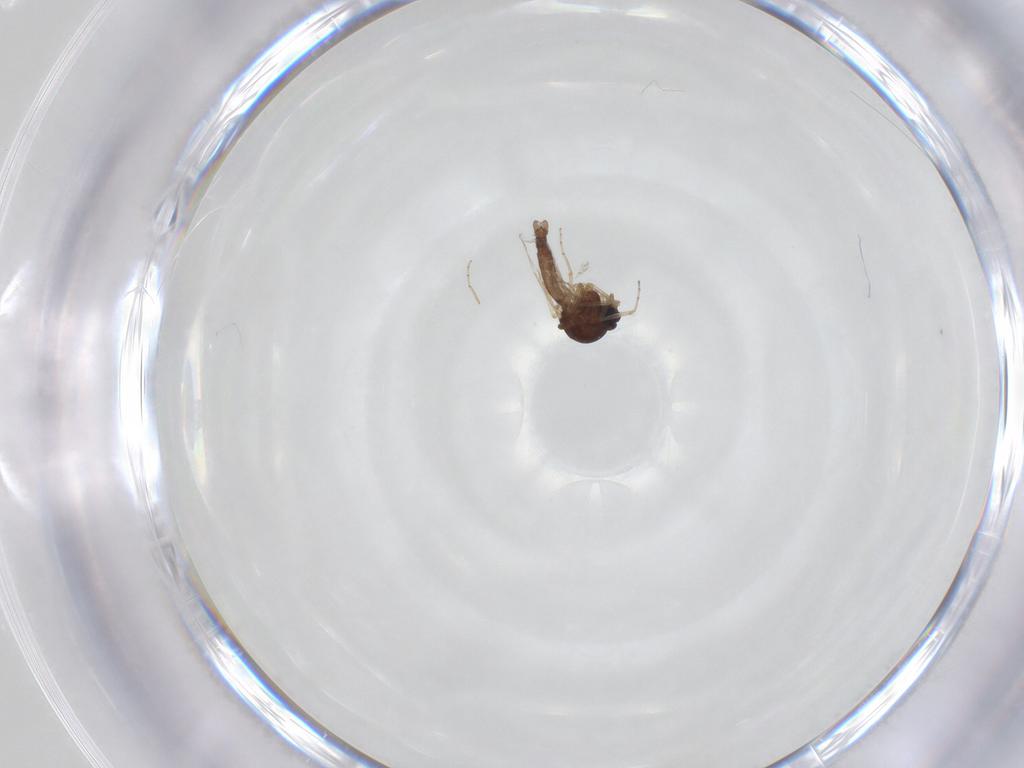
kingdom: Animalia
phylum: Arthropoda
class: Insecta
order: Diptera
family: Ceratopogonidae
